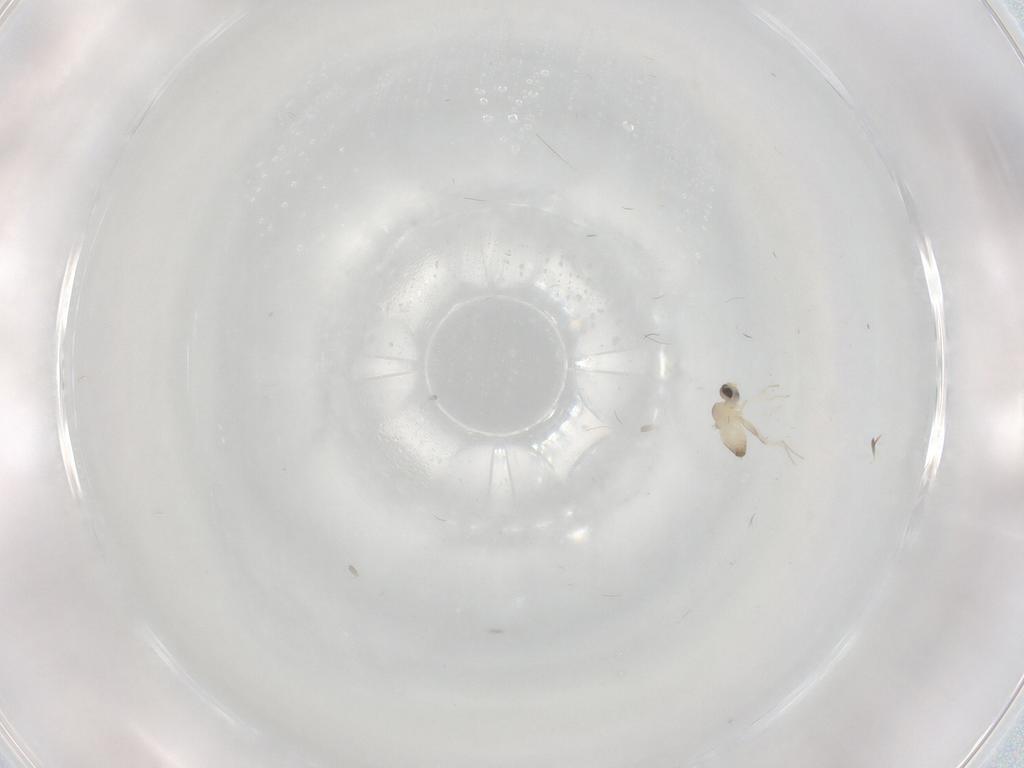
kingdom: Animalia
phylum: Arthropoda
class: Insecta
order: Diptera
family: Cecidomyiidae
